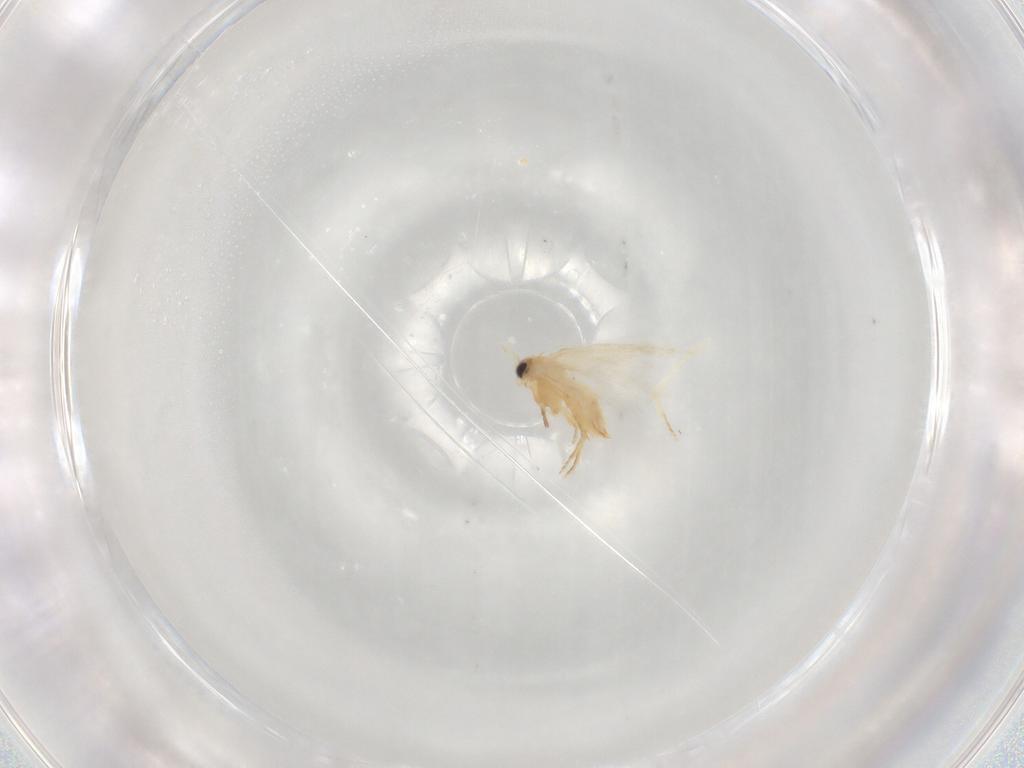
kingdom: Animalia
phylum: Arthropoda
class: Insecta
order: Lepidoptera
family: Nepticulidae
